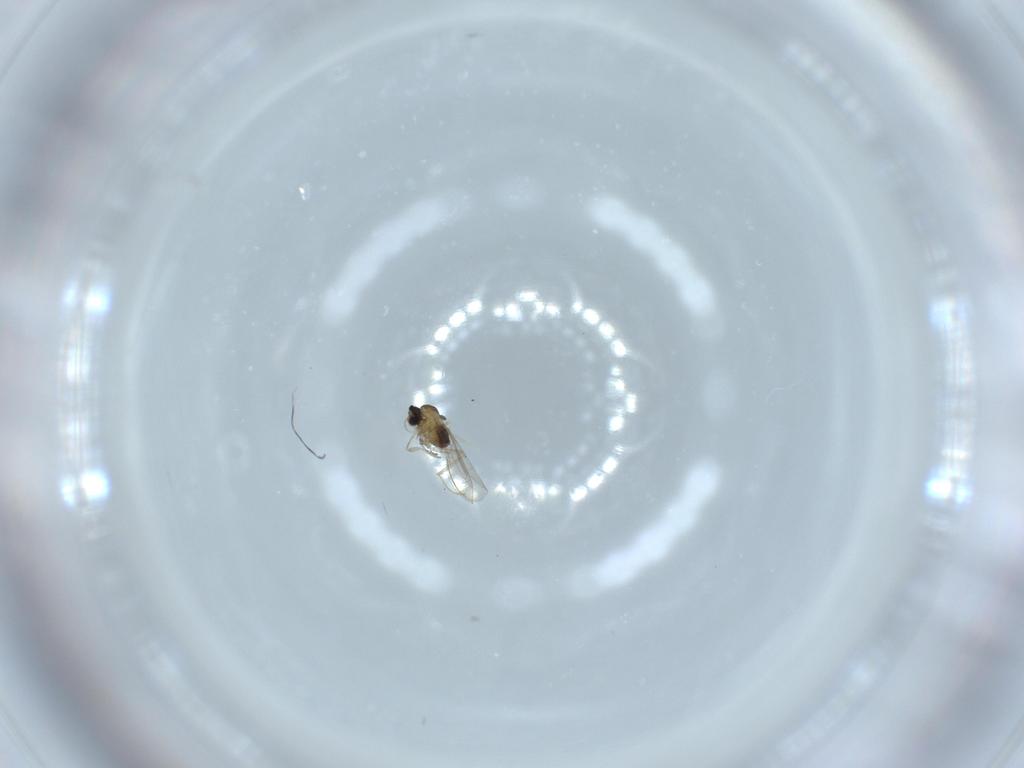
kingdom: Animalia
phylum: Arthropoda
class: Insecta
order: Diptera
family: Cecidomyiidae
